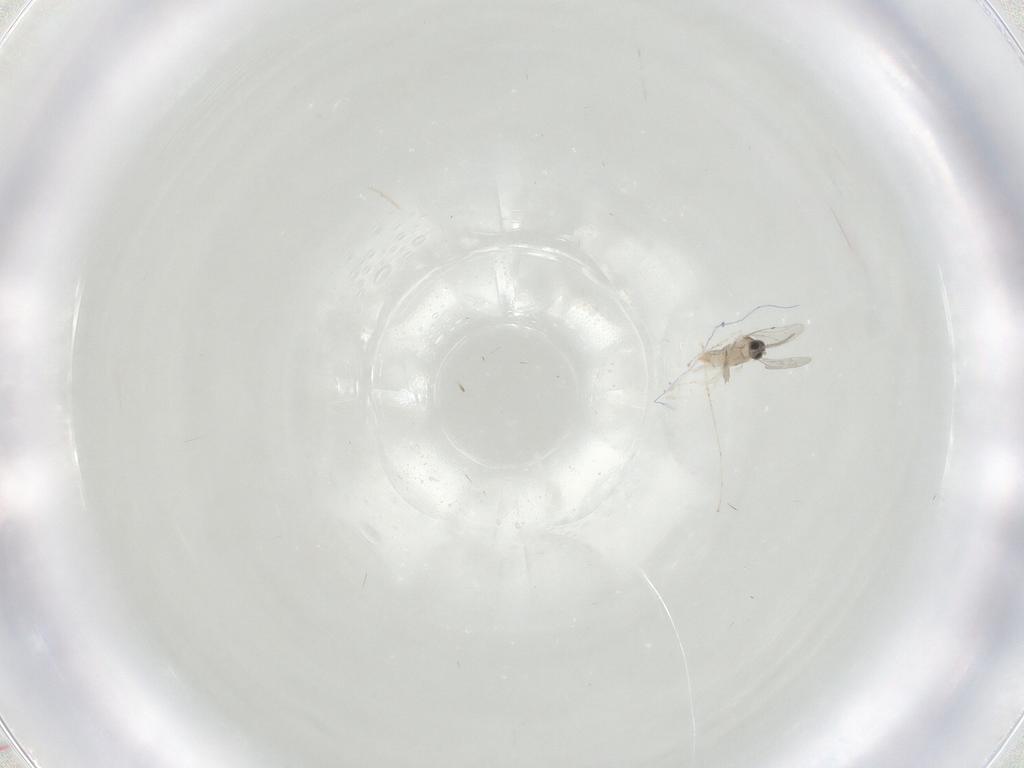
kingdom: Animalia
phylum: Arthropoda
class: Insecta
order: Diptera
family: Cecidomyiidae
